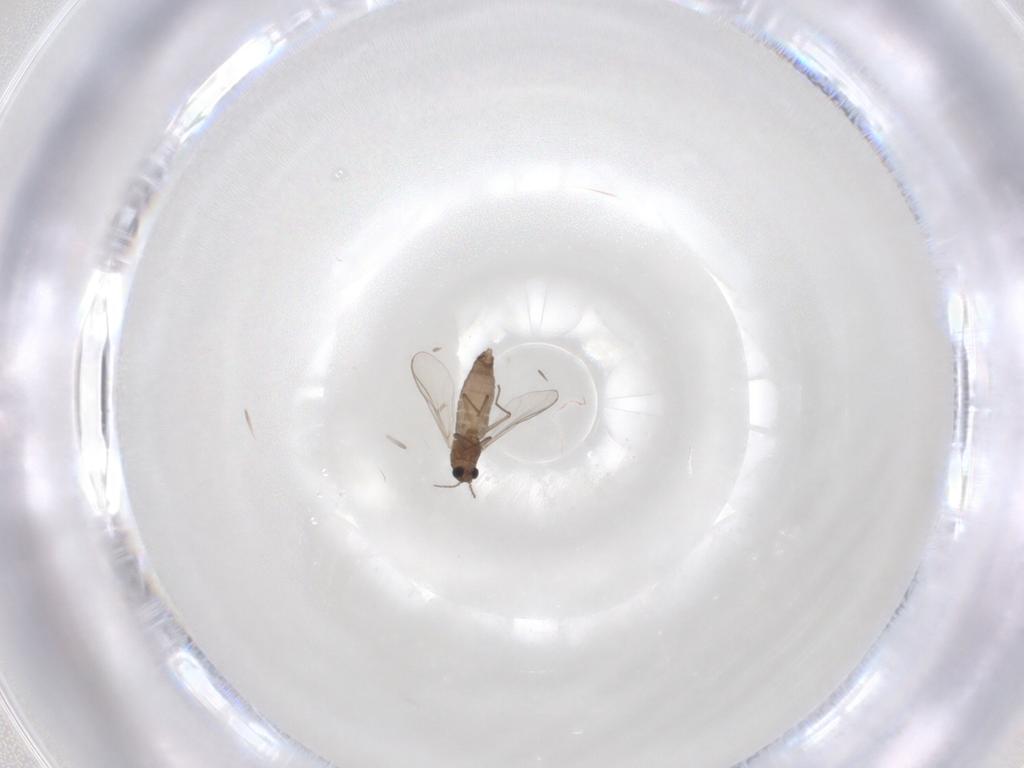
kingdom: Animalia
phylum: Arthropoda
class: Insecta
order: Diptera
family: Chironomidae
